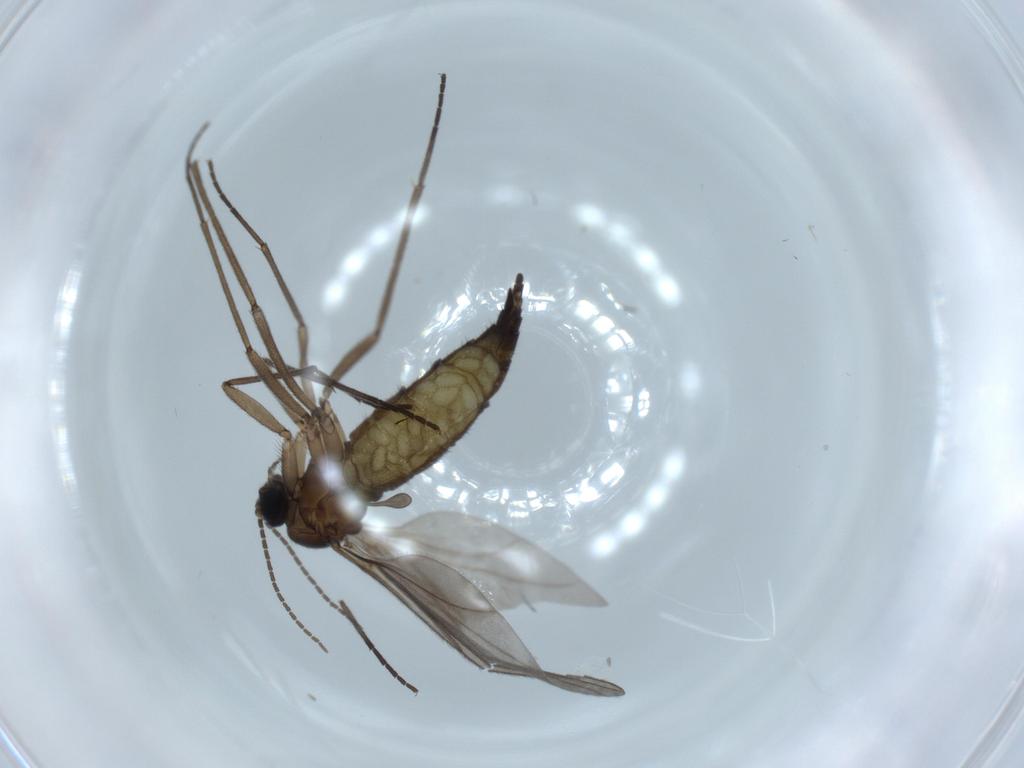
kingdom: Animalia
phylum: Arthropoda
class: Insecta
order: Diptera
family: Sciaridae
